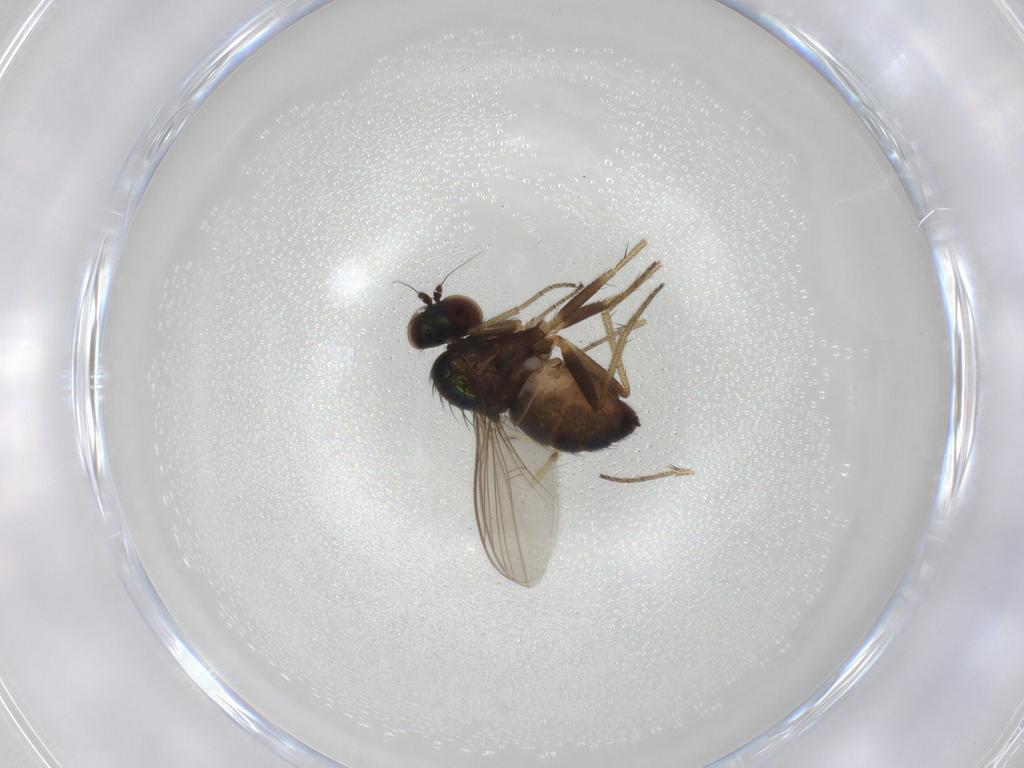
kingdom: Animalia
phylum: Arthropoda
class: Insecta
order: Diptera
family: Dolichopodidae
